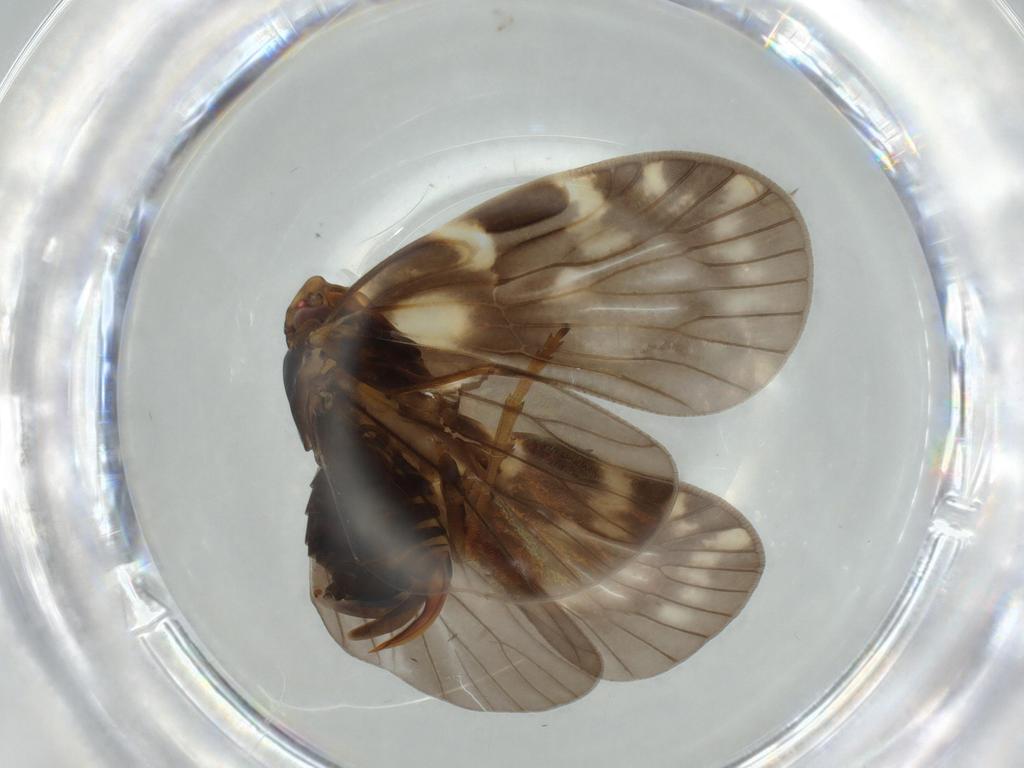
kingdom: Animalia
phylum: Arthropoda
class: Insecta
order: Hemiptera
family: Cixiidae
